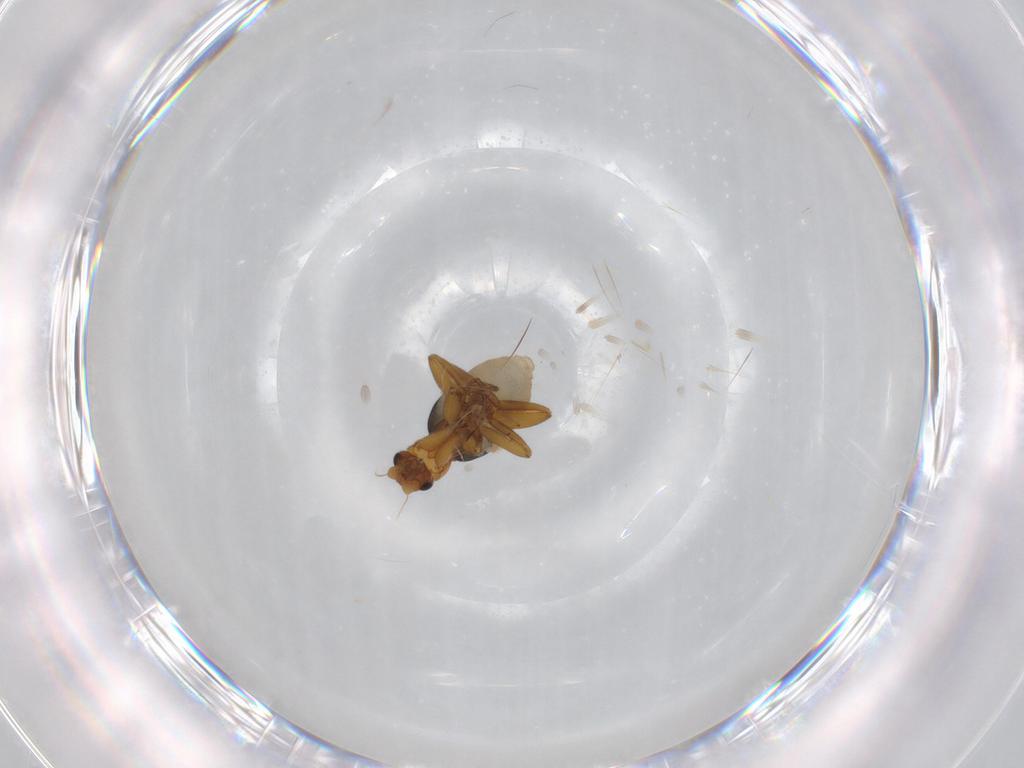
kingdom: Animalia
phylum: Arthropoda
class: Insecta
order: Diptera
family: Phoridae
